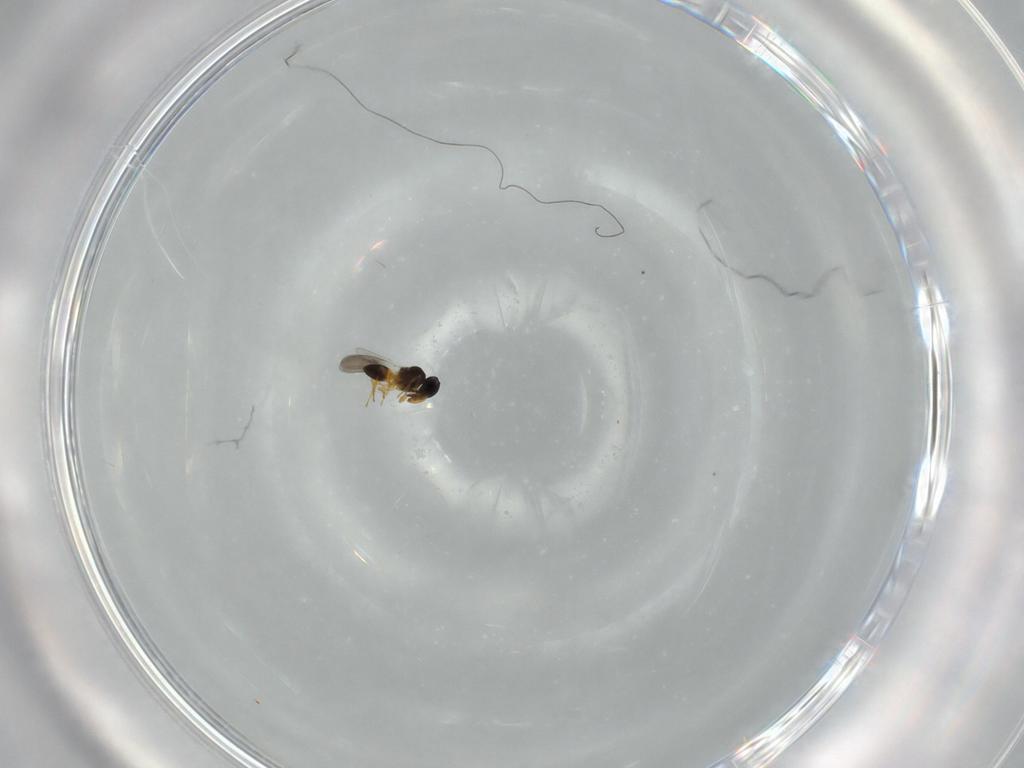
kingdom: Animalia
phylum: Arthropoda
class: Insecta
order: Hymenoptera
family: Platygastridae
